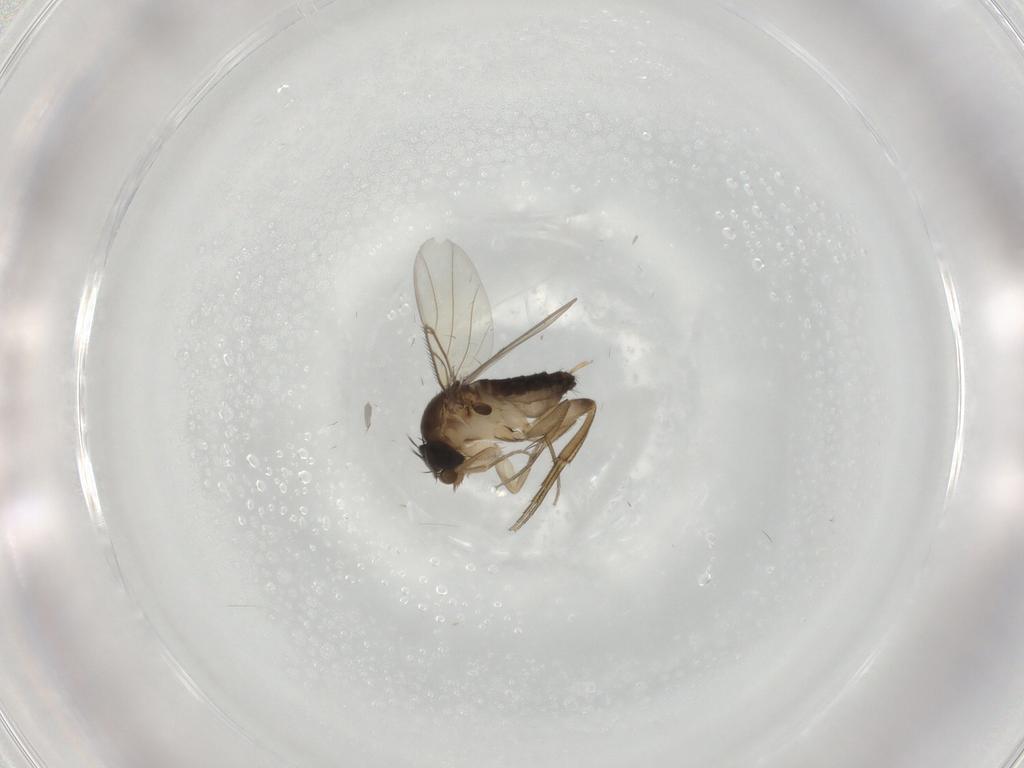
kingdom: Animalia
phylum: Arthropoda
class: Insecta
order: Diptera
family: Phoridae
